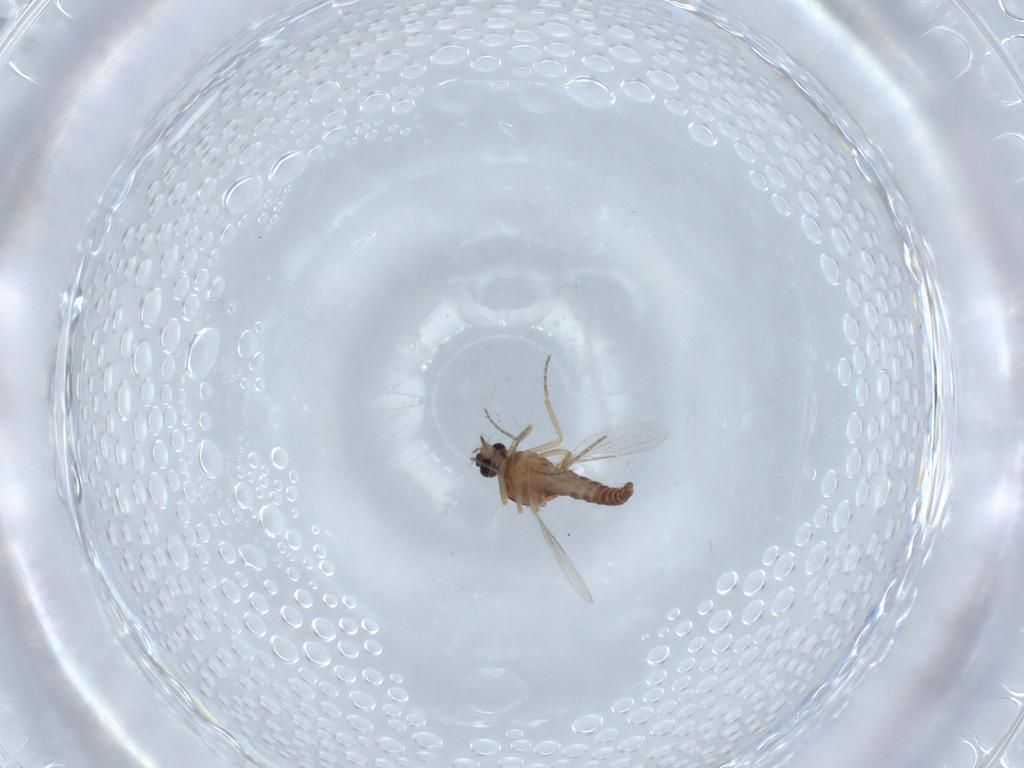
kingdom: Animalia
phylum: Arthropoda
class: Insecta
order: Diptera
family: Ceratopogonidae
